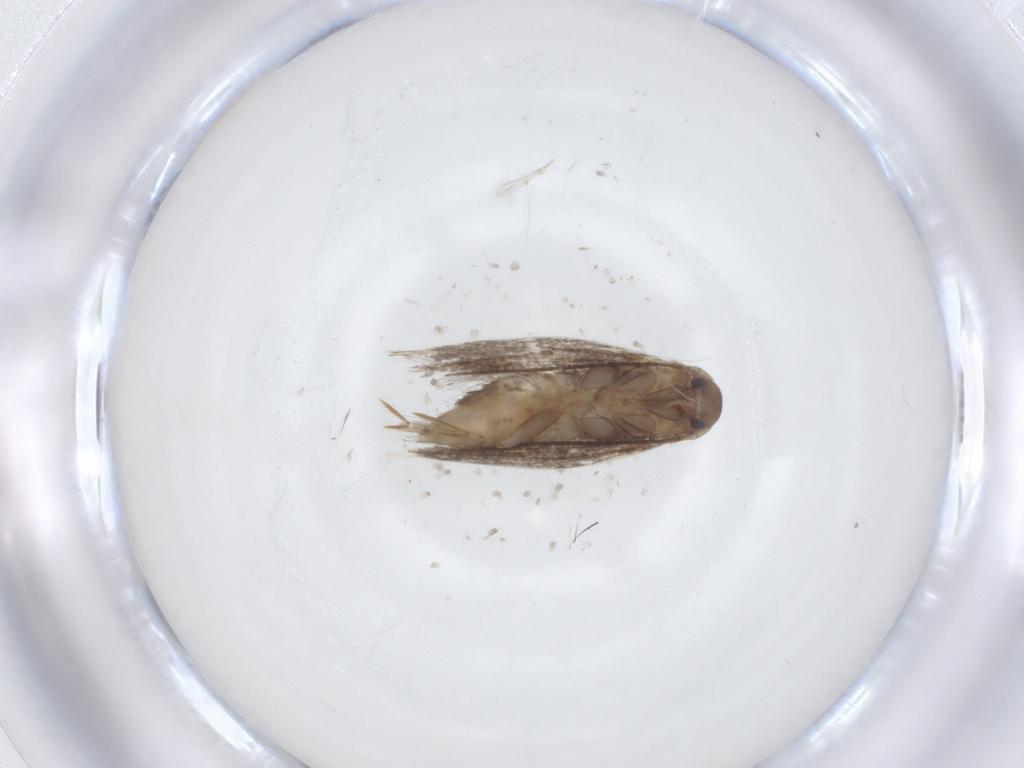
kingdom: Animalia
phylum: Arthropoda
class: Insecta
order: Lepidoptera
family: Elachistidae
